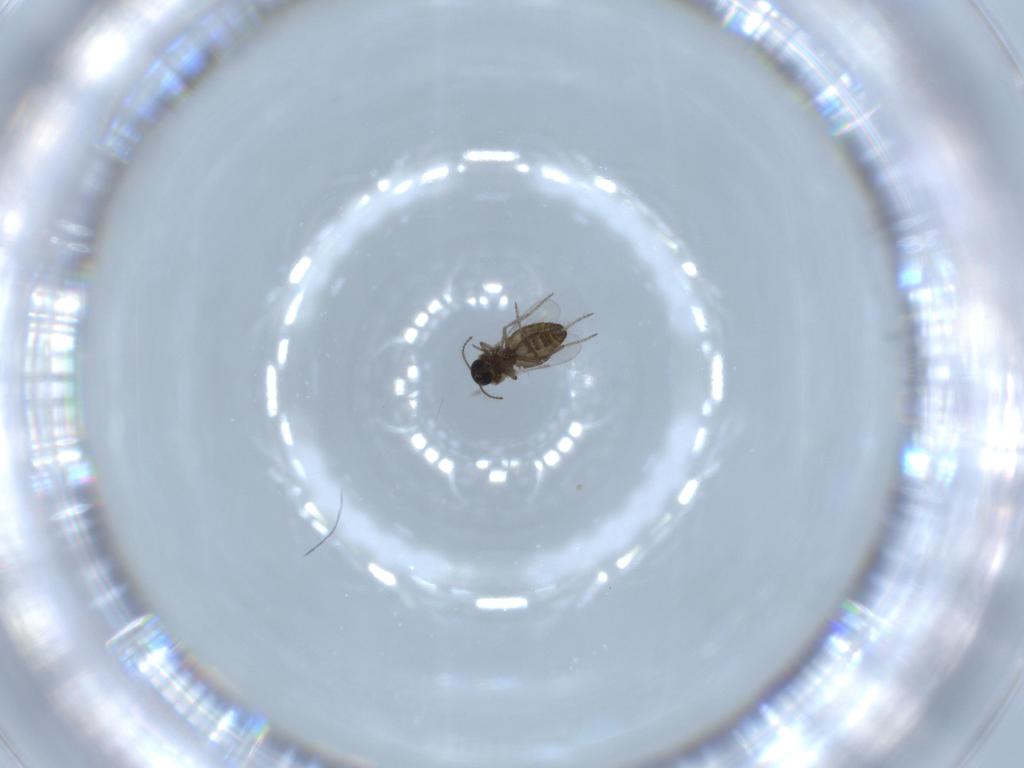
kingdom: Animalia
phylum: Arthropoda
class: Insecta
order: Diptera
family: Ceratopogonidae
